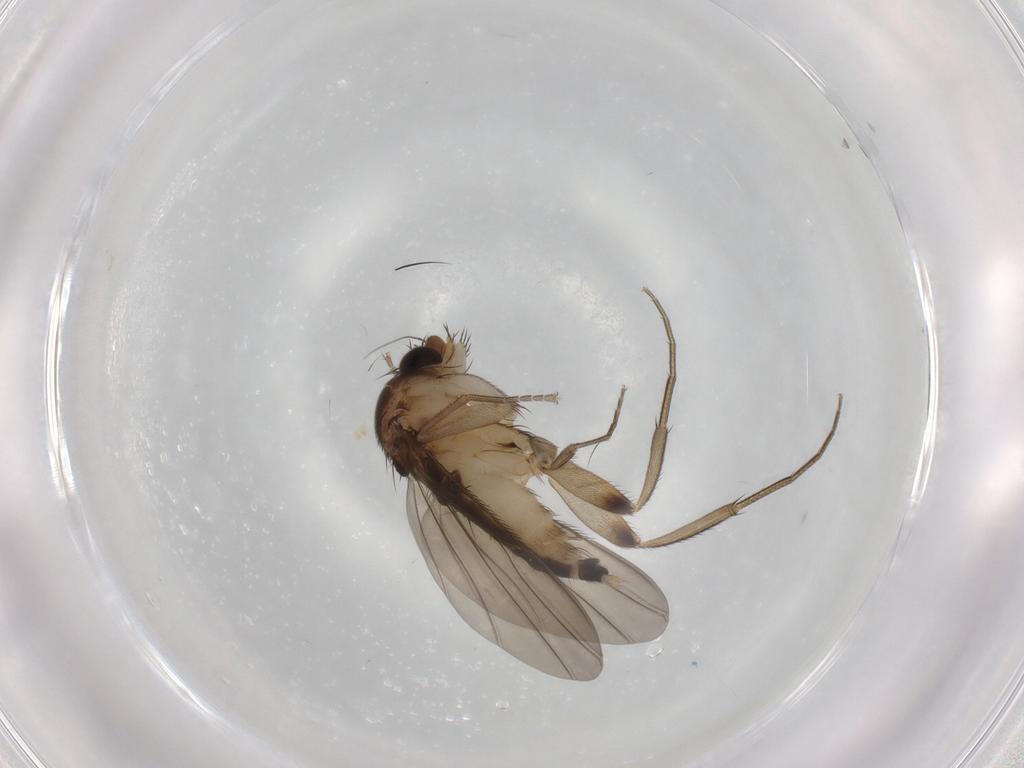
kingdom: Animalia
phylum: Arthropoda
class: Insecta
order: Diptera
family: Phoridae
